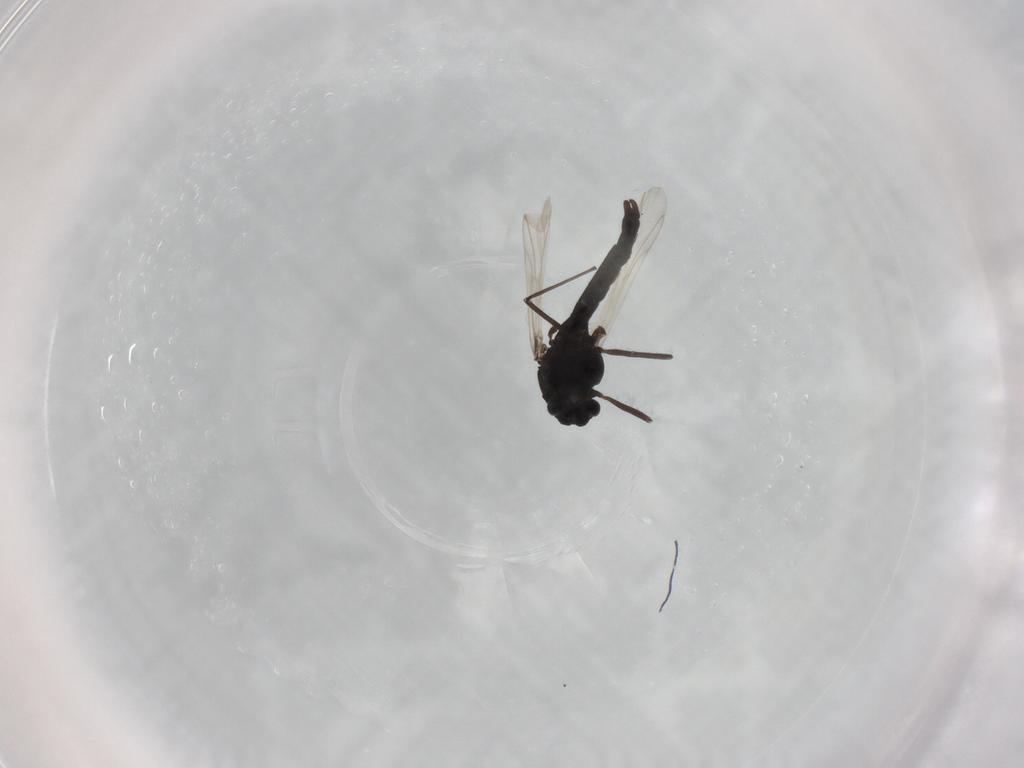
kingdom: Animalia
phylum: Arthropoda
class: Insecta
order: Diptera
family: Chironomidae
